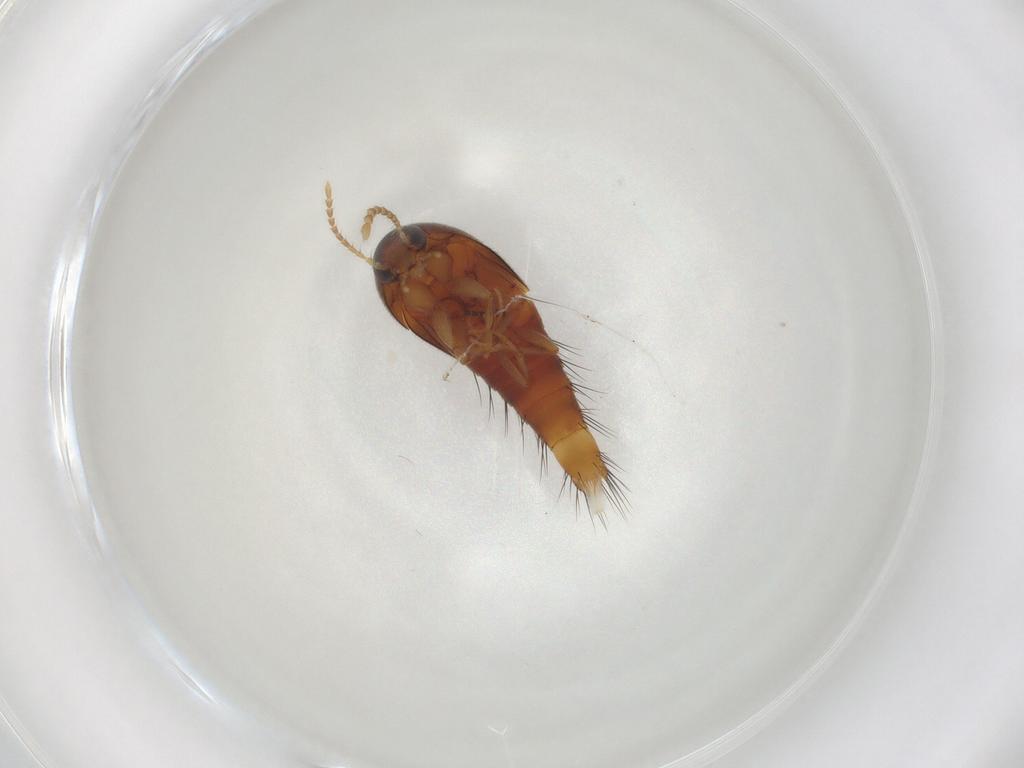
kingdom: Animalia
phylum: Arthropoda
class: Insecta
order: Coleoptera
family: Staphylinidae
